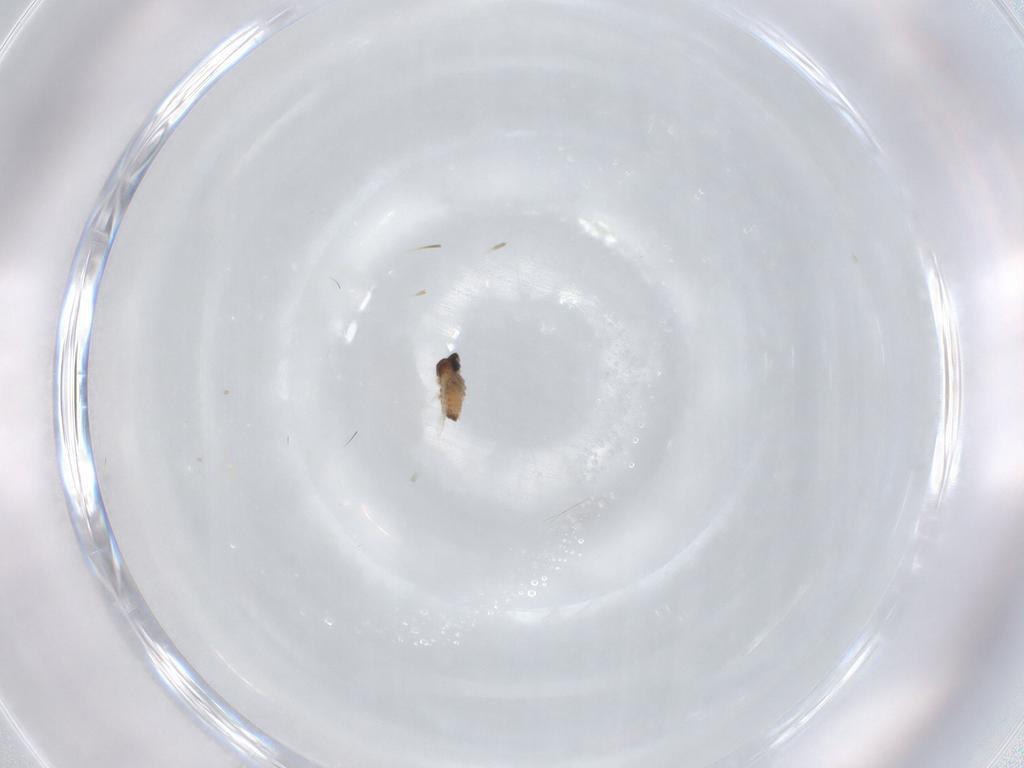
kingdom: Animalia
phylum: Arthropoda
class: Insecta
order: Diptera
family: Cecidomyiidae
